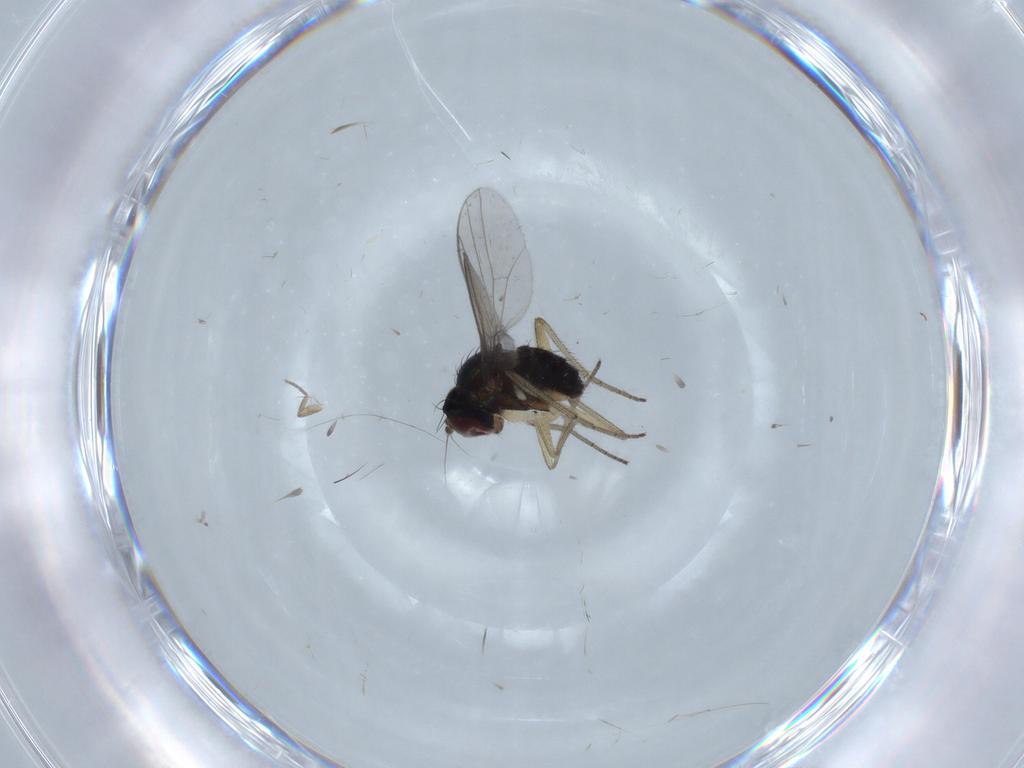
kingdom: Animalia
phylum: Arthropoda
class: Insecta
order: Diptera
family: Dolichopodidae
